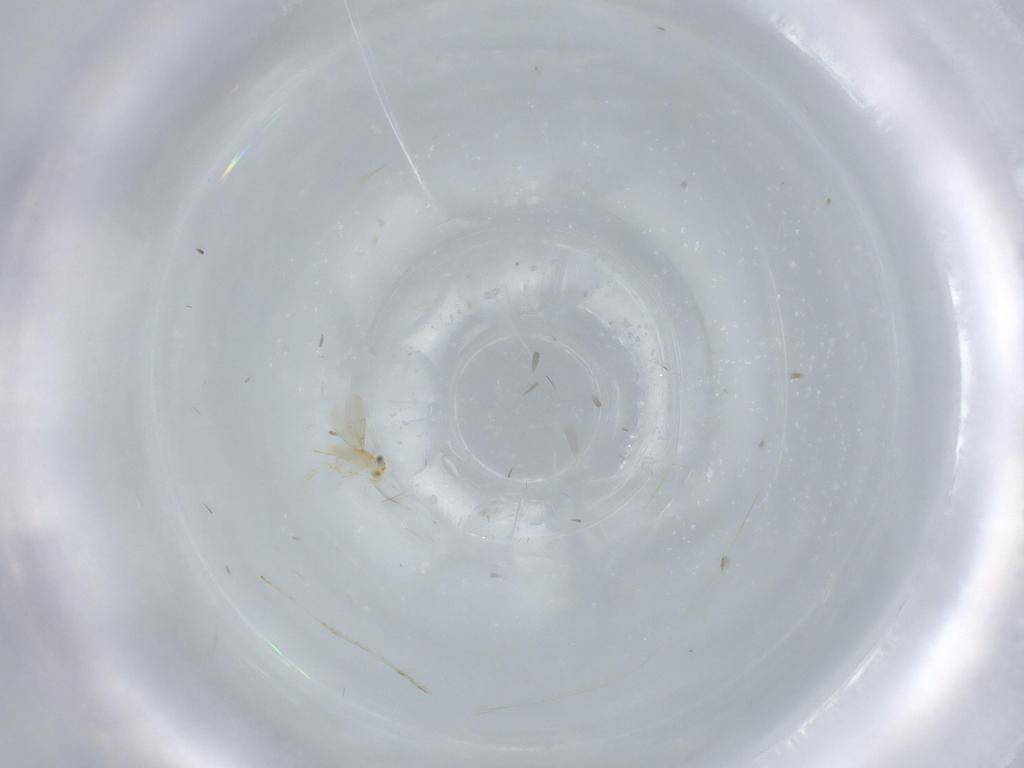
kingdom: Animalia
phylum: Arthropoda
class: Insecta
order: Hymenoptera
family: Aphelinidae
